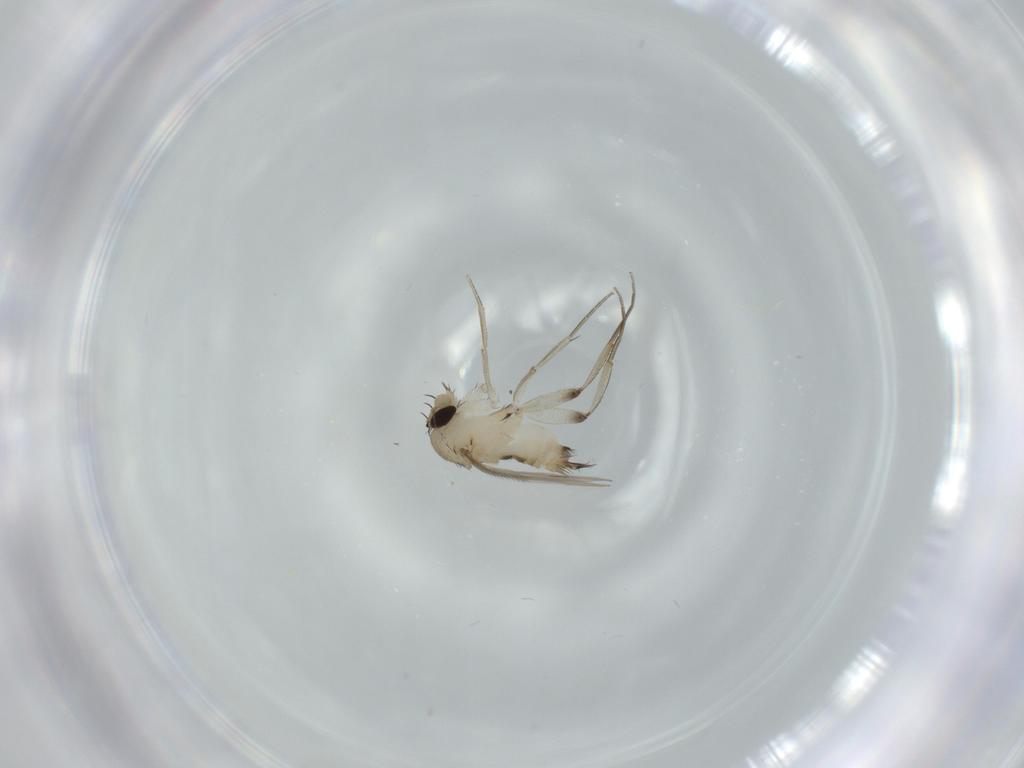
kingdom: Animalia
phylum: Arthropoda
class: Insecta
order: Diptera
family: Phoridae
